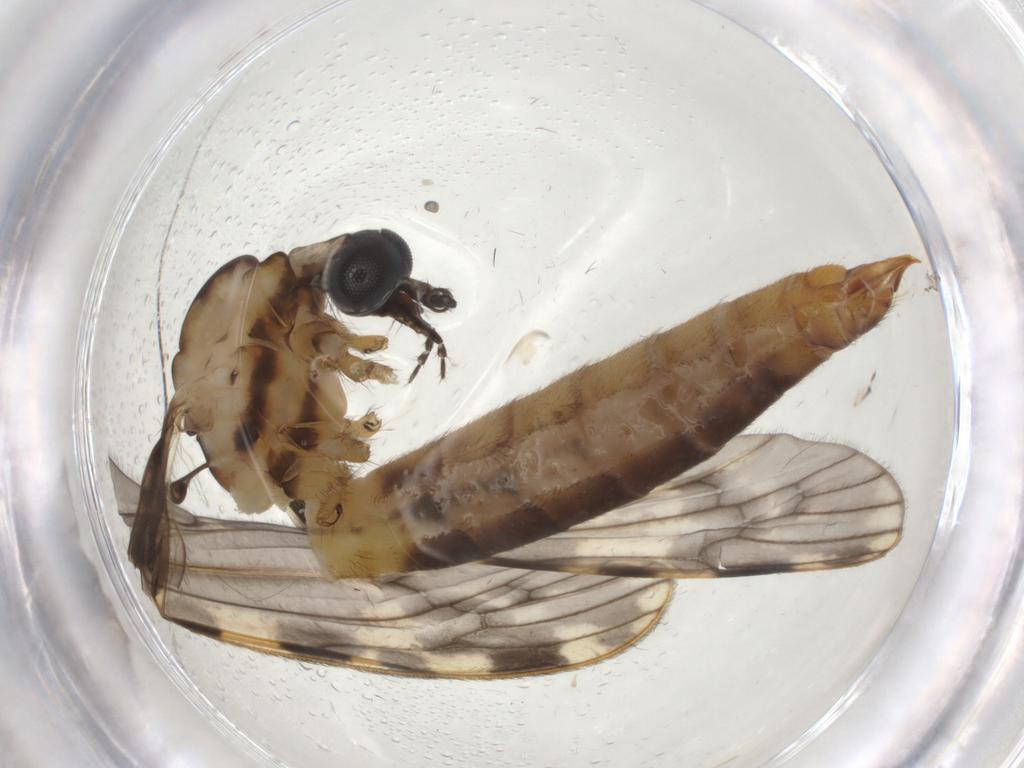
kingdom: Animalia
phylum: Arthropoda
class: Insecta
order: Diptera
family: Limoniidae
